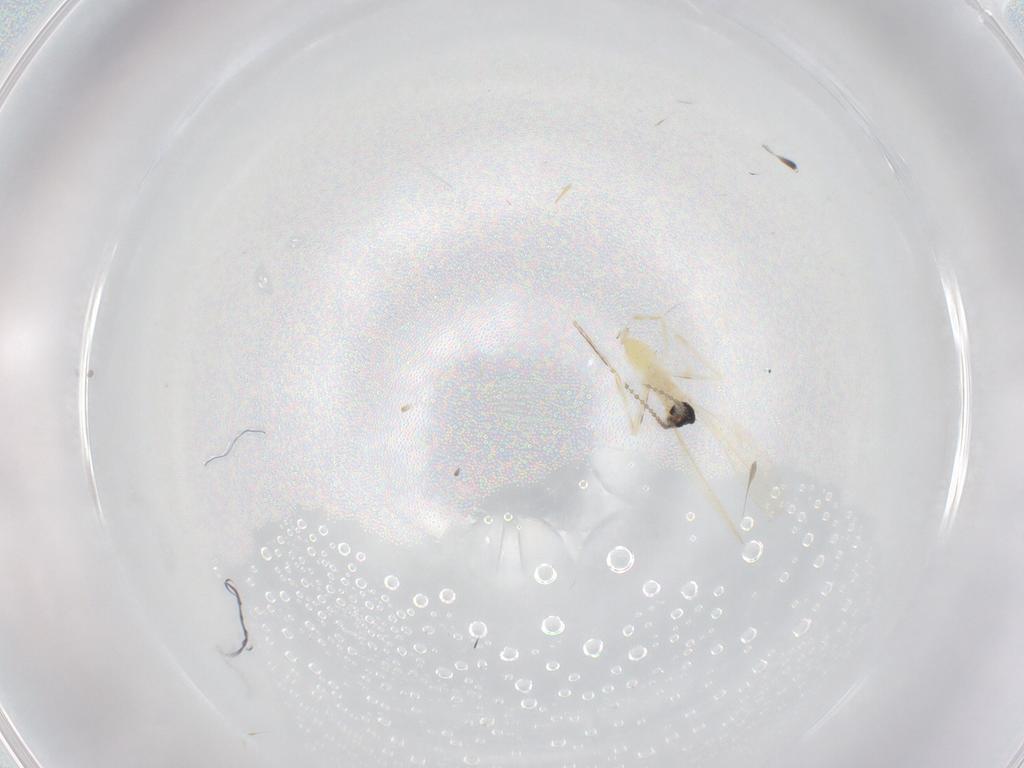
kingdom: Animalia
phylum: Arthropoda
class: Insecta
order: Diptera
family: Cecidomyiidae
